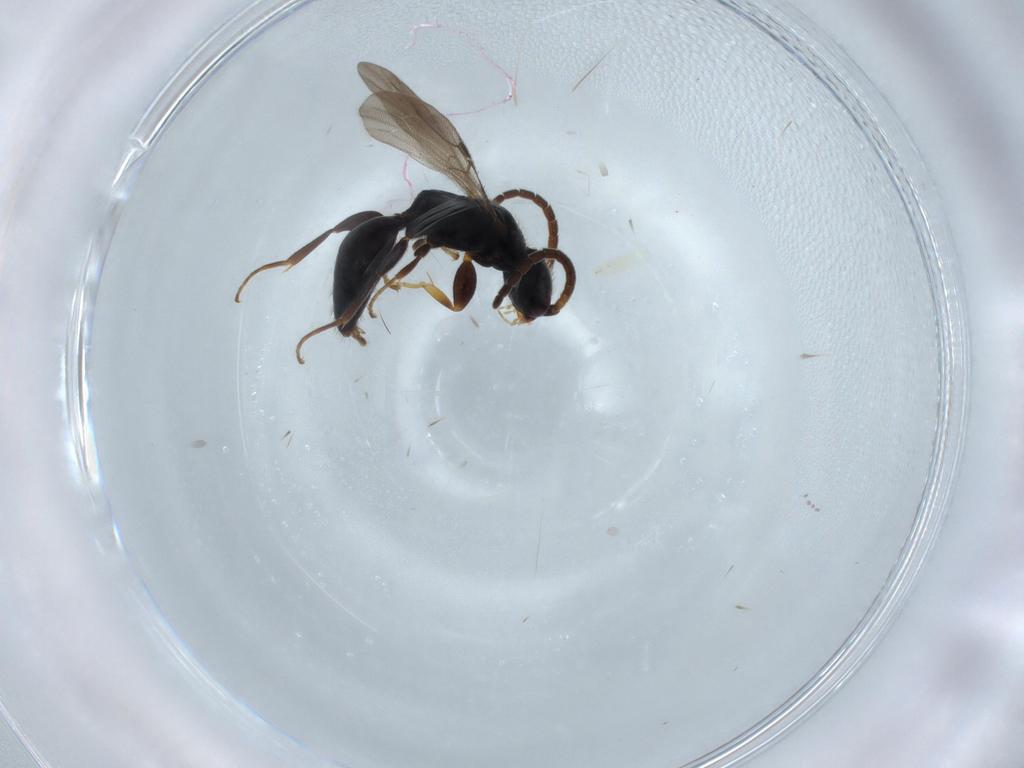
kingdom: Animalia
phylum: Arthropoda
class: Insecta
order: Hymenoptera
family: Bethylidae
